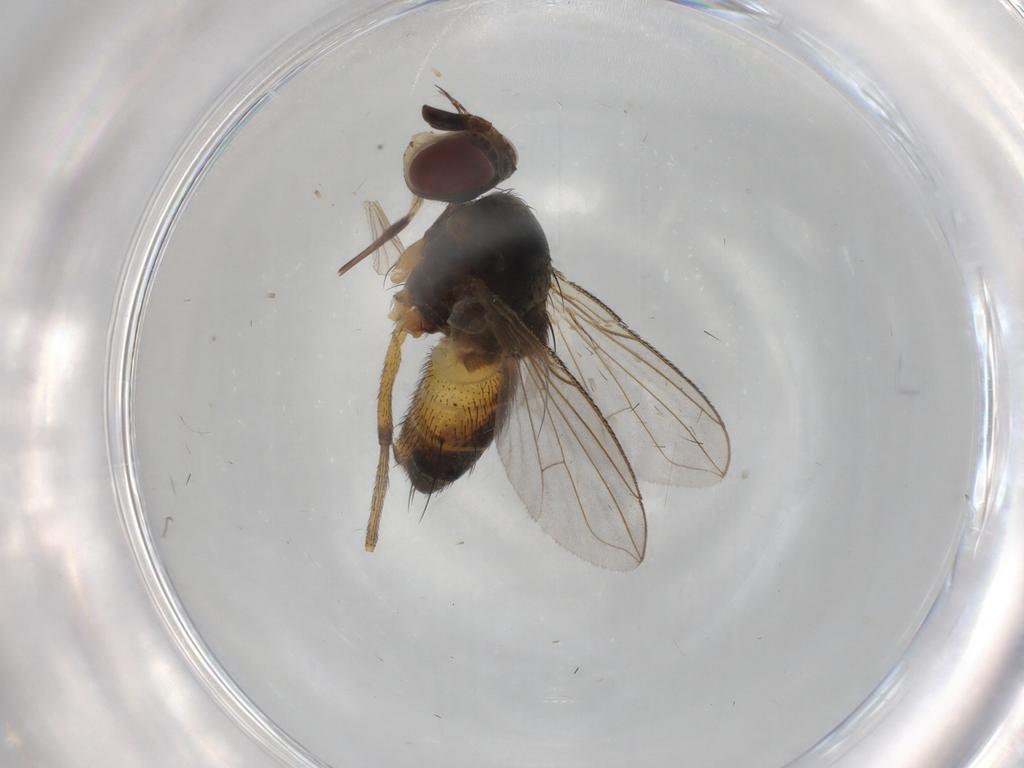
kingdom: Animalia
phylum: Arthropoda
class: Insecta
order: Diptera
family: Tachinidae
